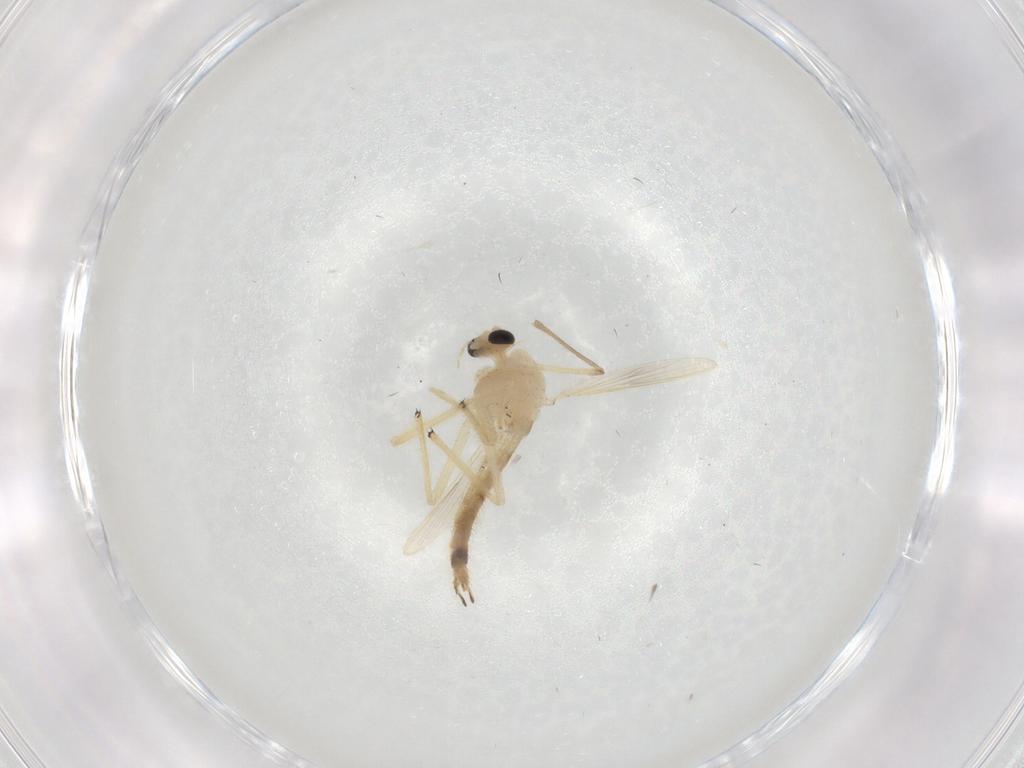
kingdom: Animalia
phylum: Arthropoda
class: Insecta
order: Diptera
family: Chironomidae
